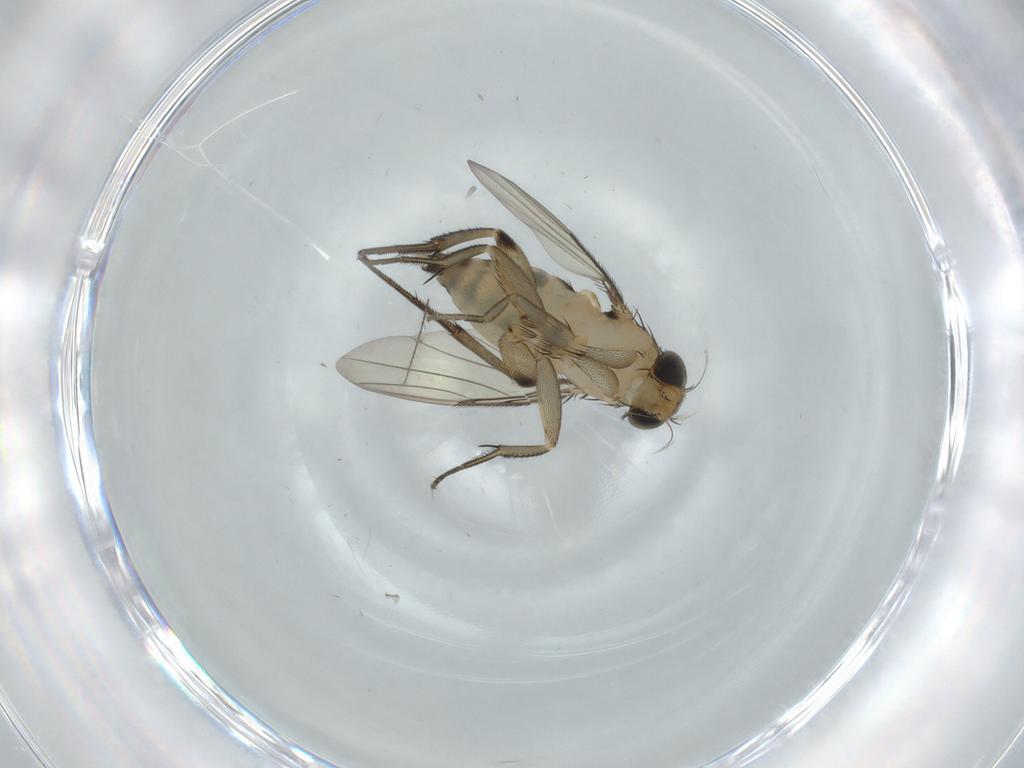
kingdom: Animalia
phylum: Arthropoda
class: Insecta
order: Diptera
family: Phoridae
